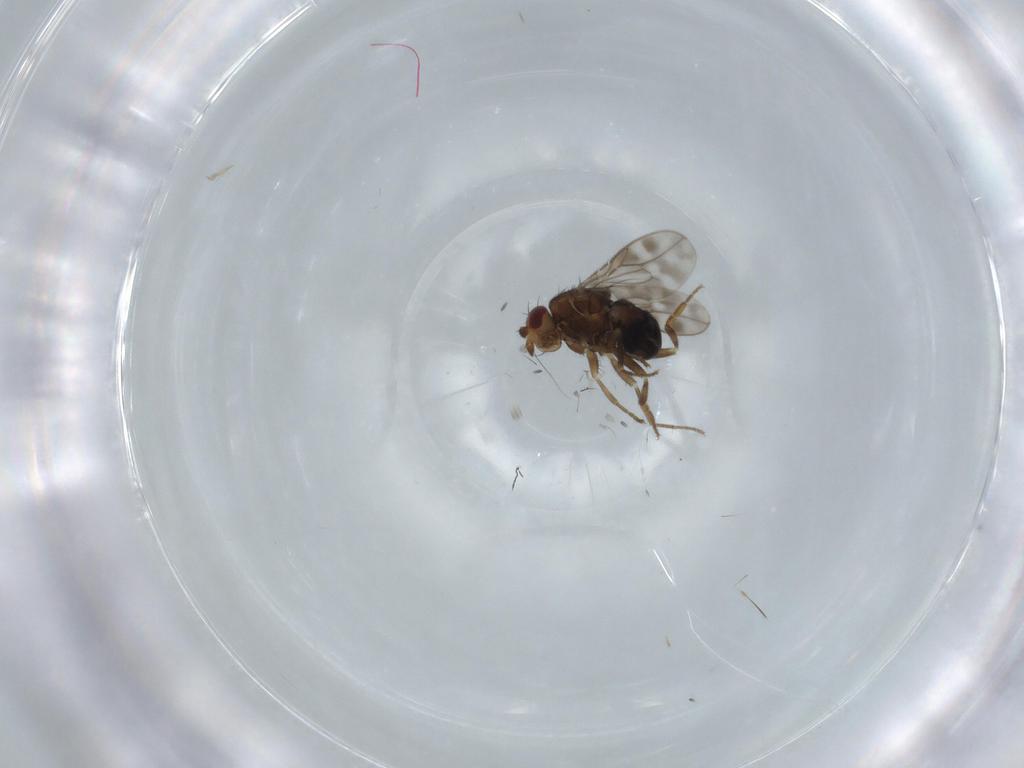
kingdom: Animalia
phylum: Arthropoda
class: Insecta
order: Diptera
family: Sphaeroceridae
